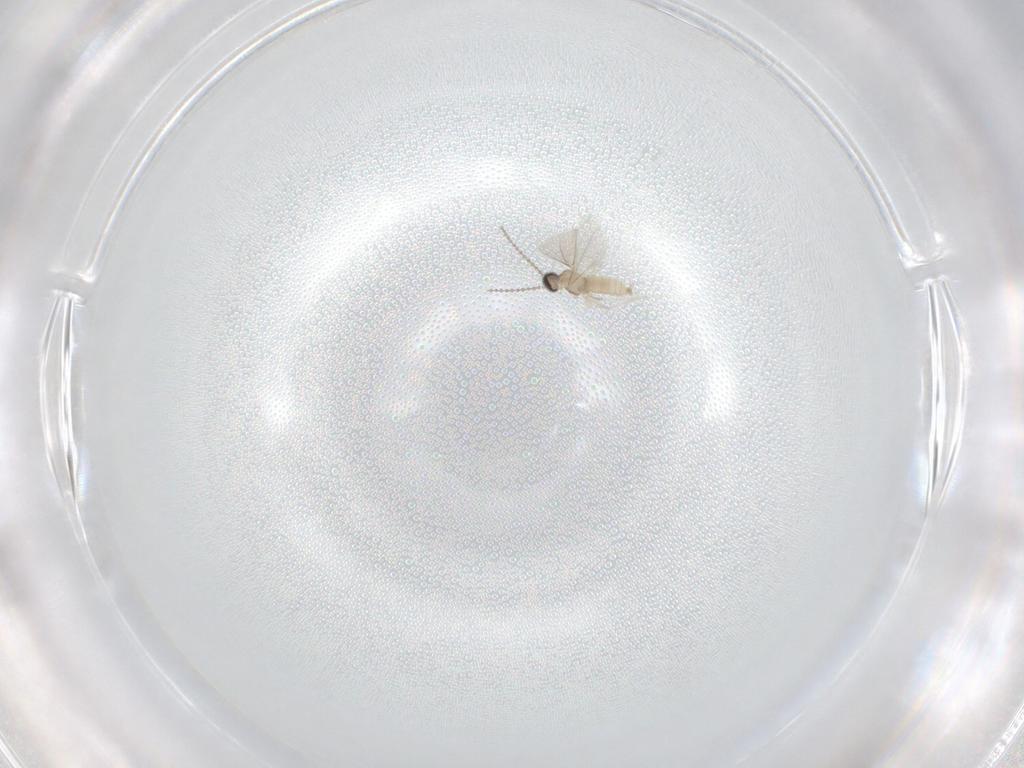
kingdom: Animalia
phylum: Arthropoda
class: Insecta
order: Diptera
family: Cecidomyiidae
